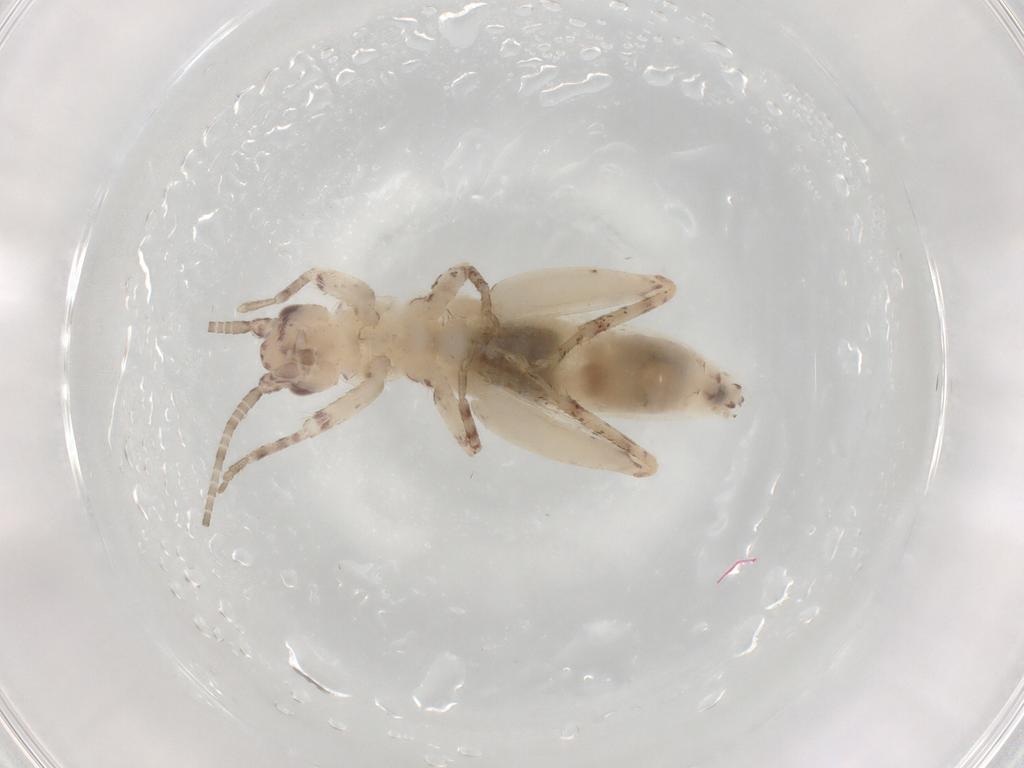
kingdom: Animalia
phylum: Arthropoda
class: Insecta
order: Orthoptera
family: Mogoplistidae
